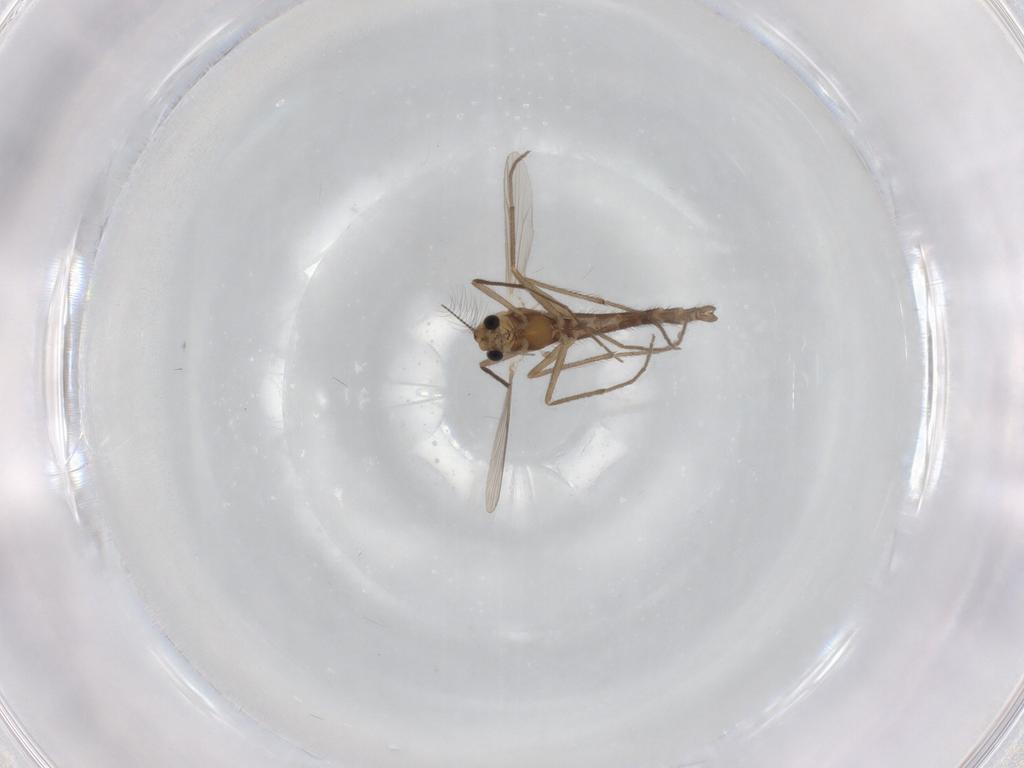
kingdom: Animalia
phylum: Arthropoda
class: Insecta
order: Diptera
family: Chironomidae
